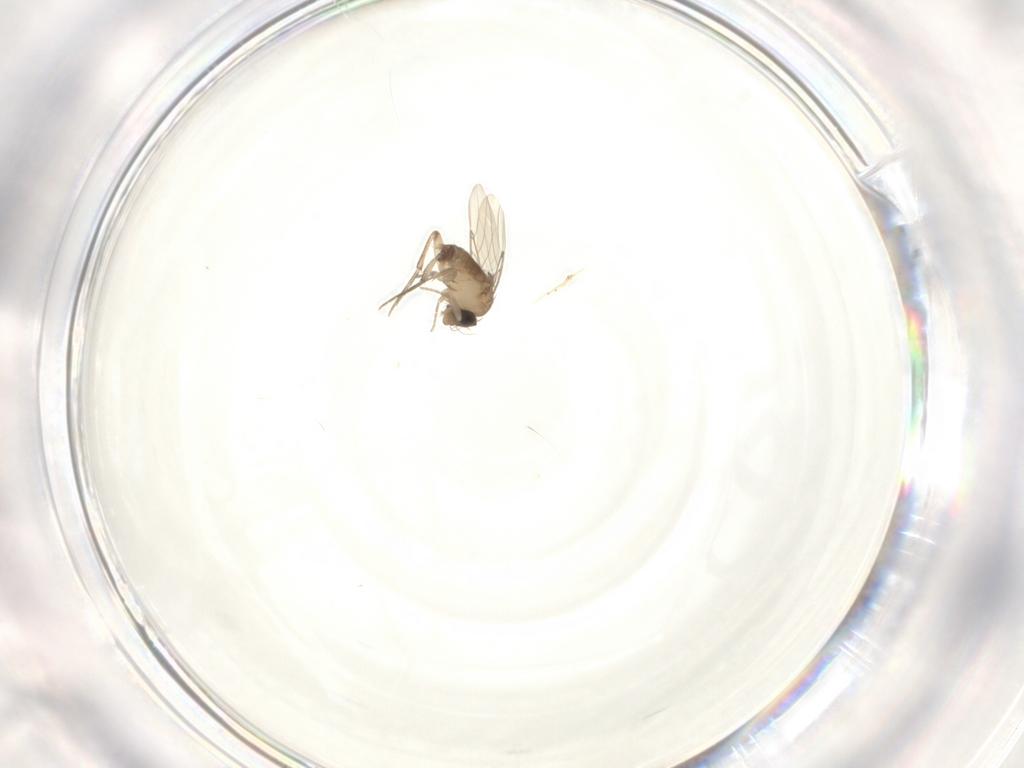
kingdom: Animalia
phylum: Arthropoda
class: Insecta
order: Diptera
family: Phoridae
